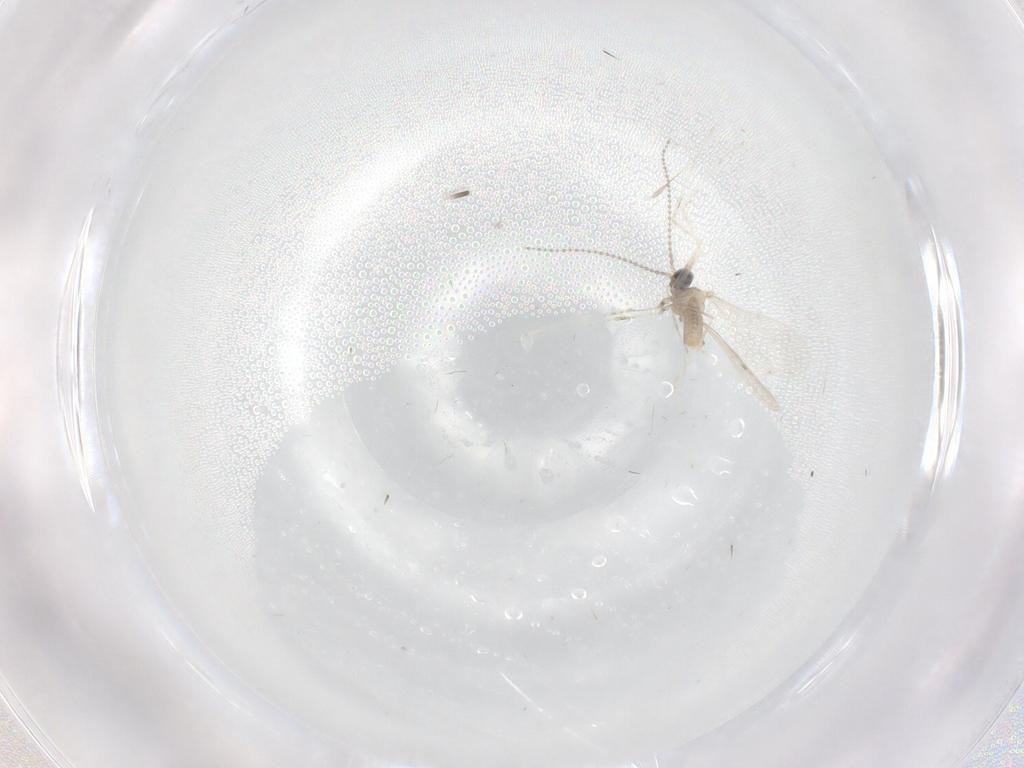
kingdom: Animalia
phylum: Arthropoda
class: Insecta
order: Diptera
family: Cecidomyiidae
